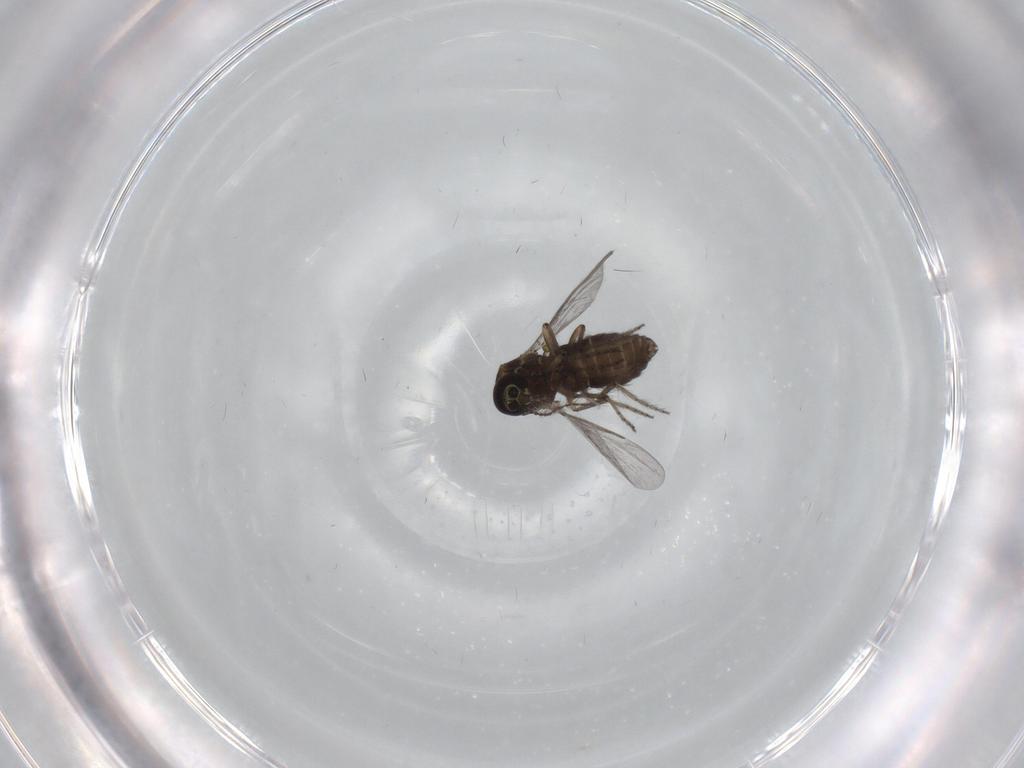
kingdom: Animalia
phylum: Arthropoda
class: Insecta
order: Diptera
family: Ceratopogonidae
